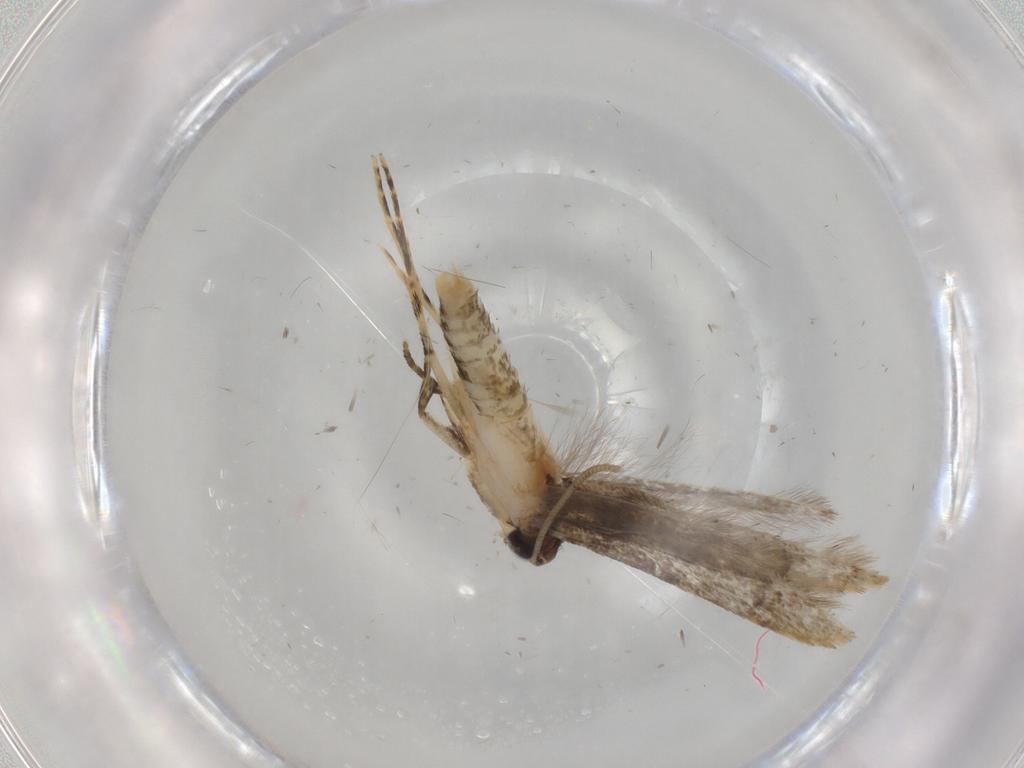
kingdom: Animalia
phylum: Arthropoda
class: Insecta
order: Lepidoptera
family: Tineidae
